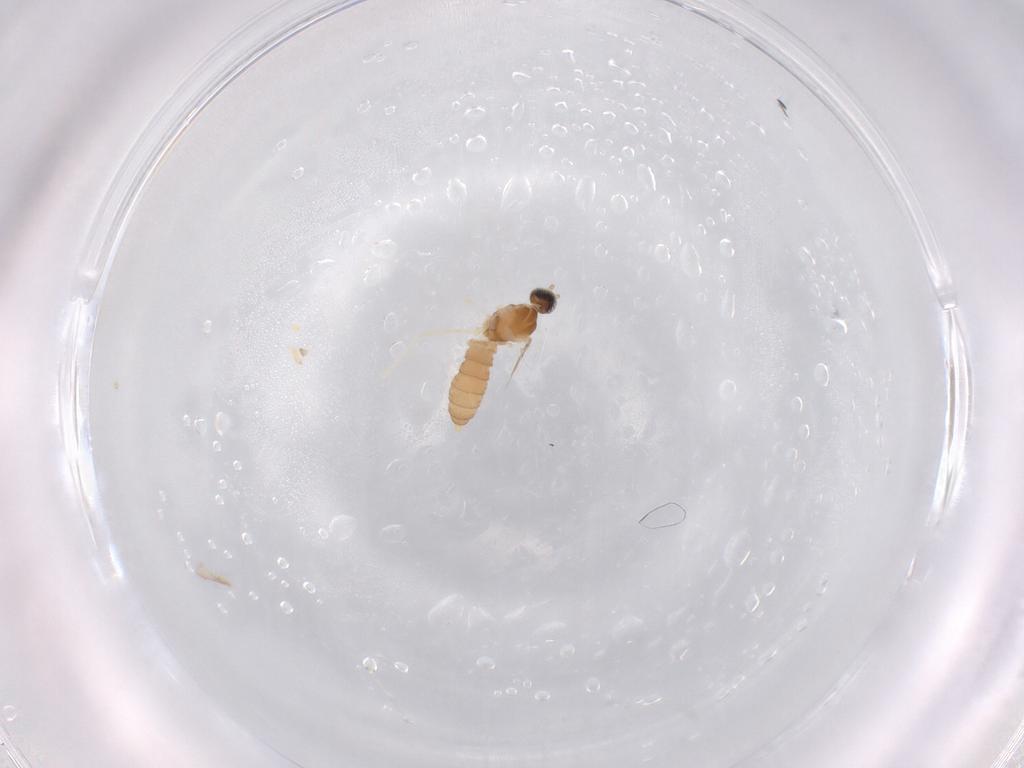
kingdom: Animalia
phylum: Arthropoda
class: Insecta
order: Diptera
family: Cecidomyiidae
